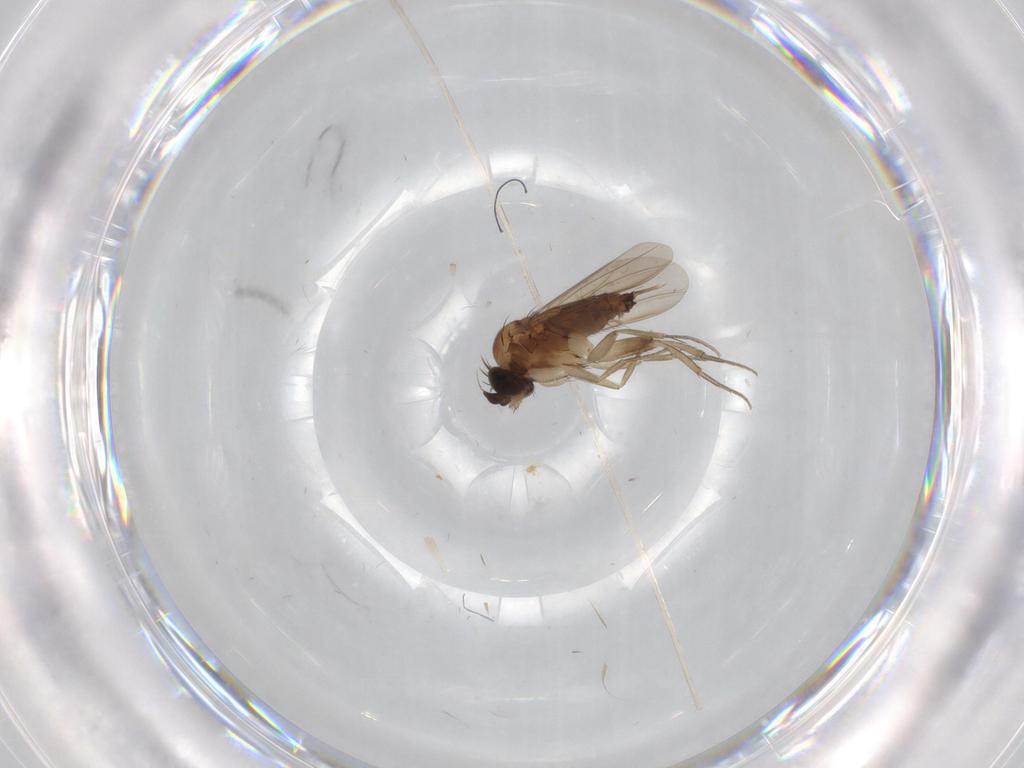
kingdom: Animalia
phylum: Arthropoda
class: Insecta
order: Diptera
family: Phoridae
